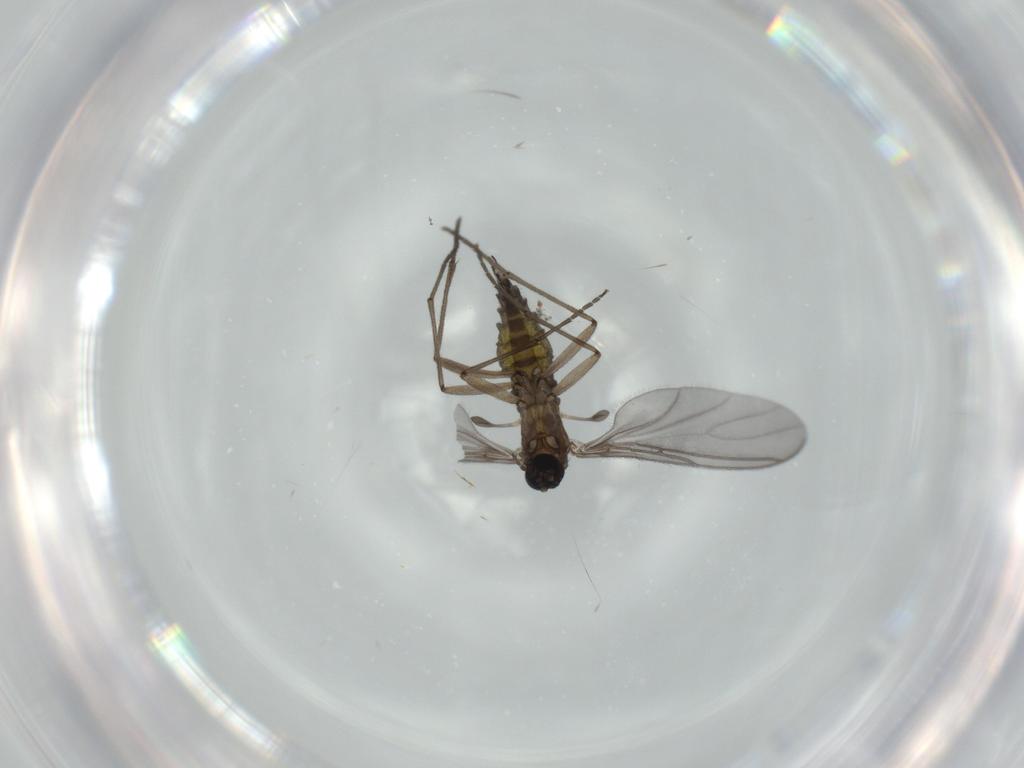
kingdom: Animalia
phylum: Arthropoda
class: Insecta
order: Diptera
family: Sciaridae
